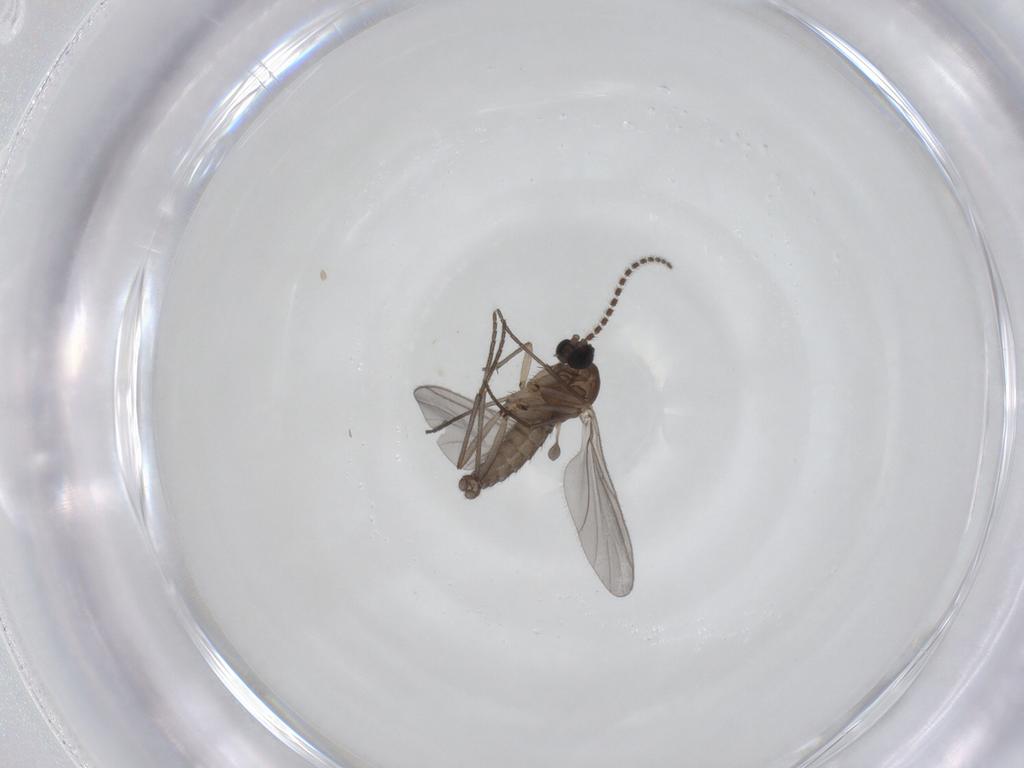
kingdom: Animalia
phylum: Arthropoda
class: Insecta
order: Diptera
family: Sciaridae
